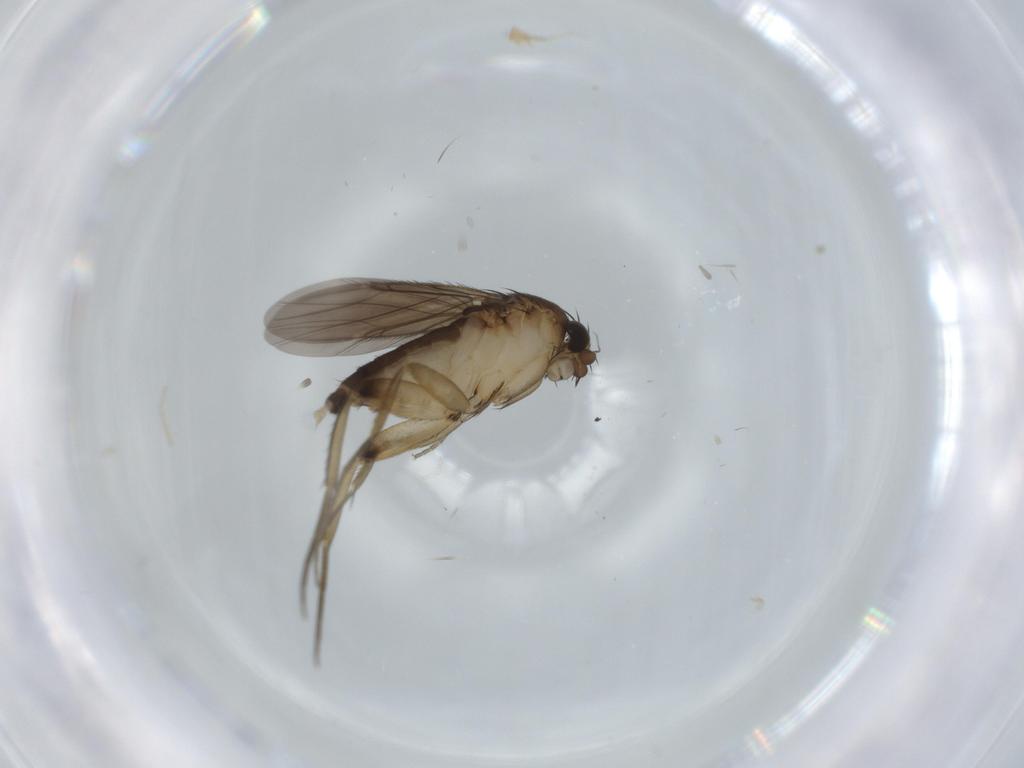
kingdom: Animalia
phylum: Arthropoda
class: Insecta
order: Diptera
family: Phoridae
